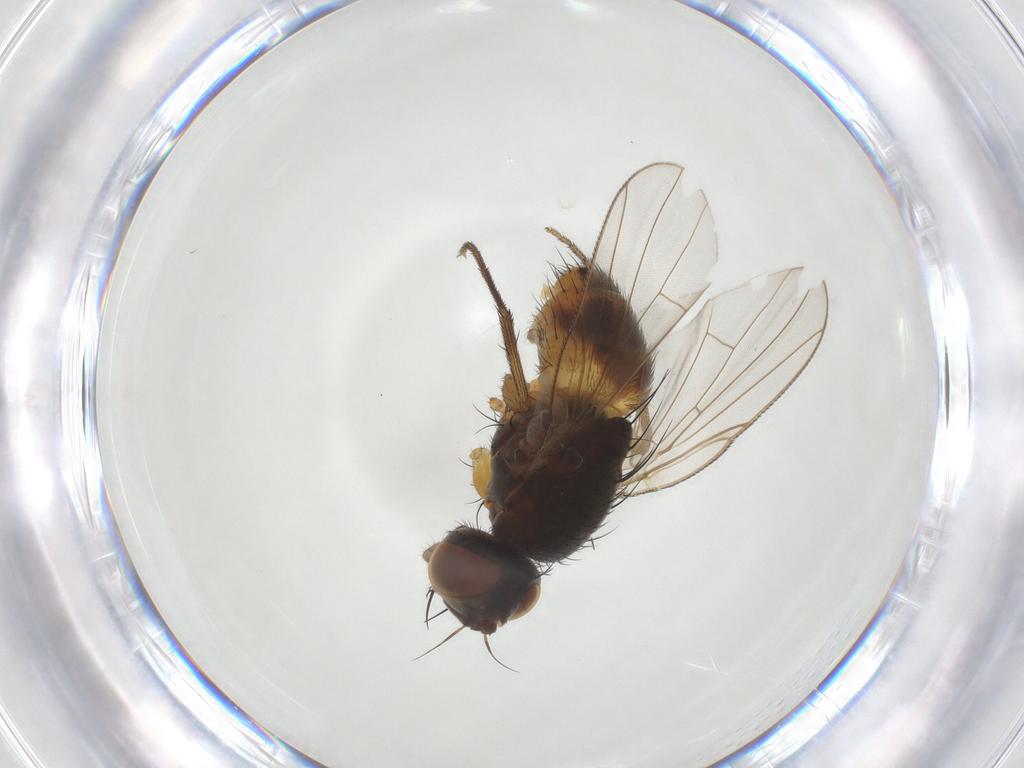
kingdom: Animalia
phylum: Arthropoda
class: Insecta
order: Diptera
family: Muscidae
